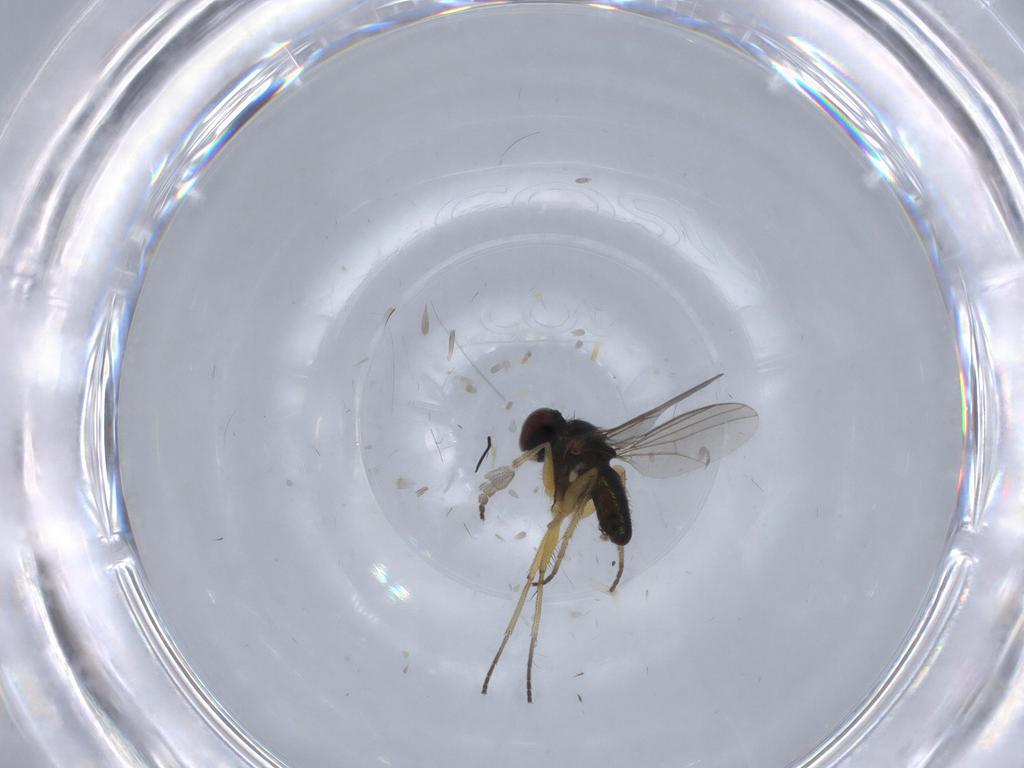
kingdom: Animalia
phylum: Arthropoda
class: Insecta
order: Diptera
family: Dolichopodidae
